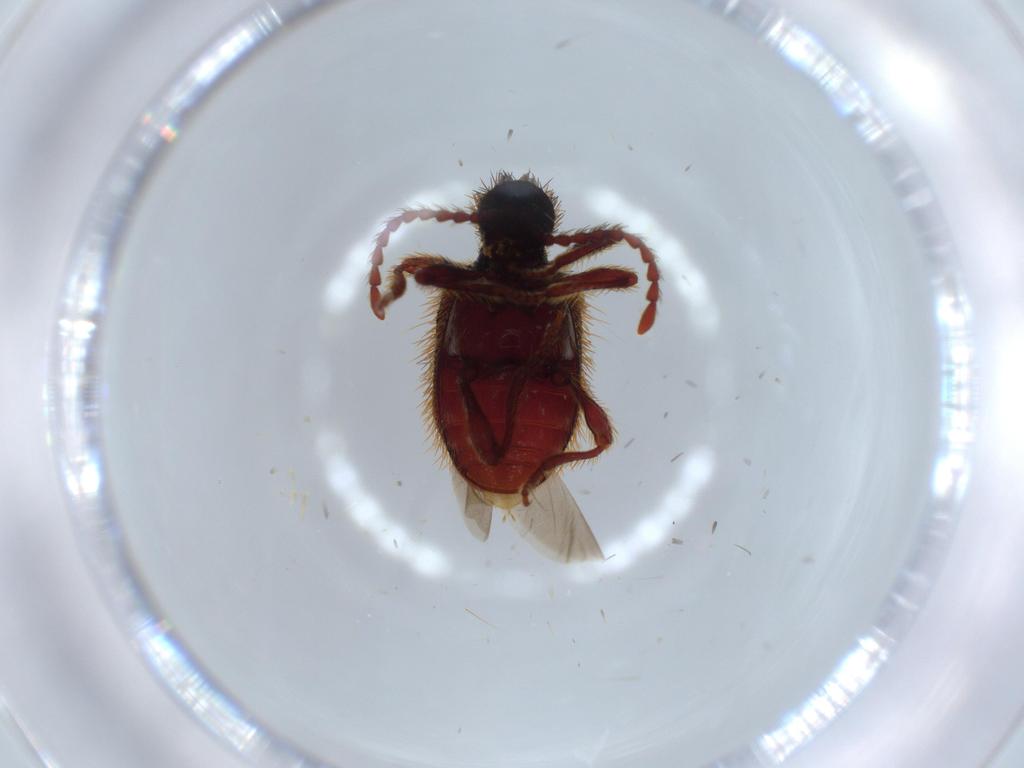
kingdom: Animalia
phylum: Arthropoda
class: Insecta
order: Coleoptera
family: Ptinidae
